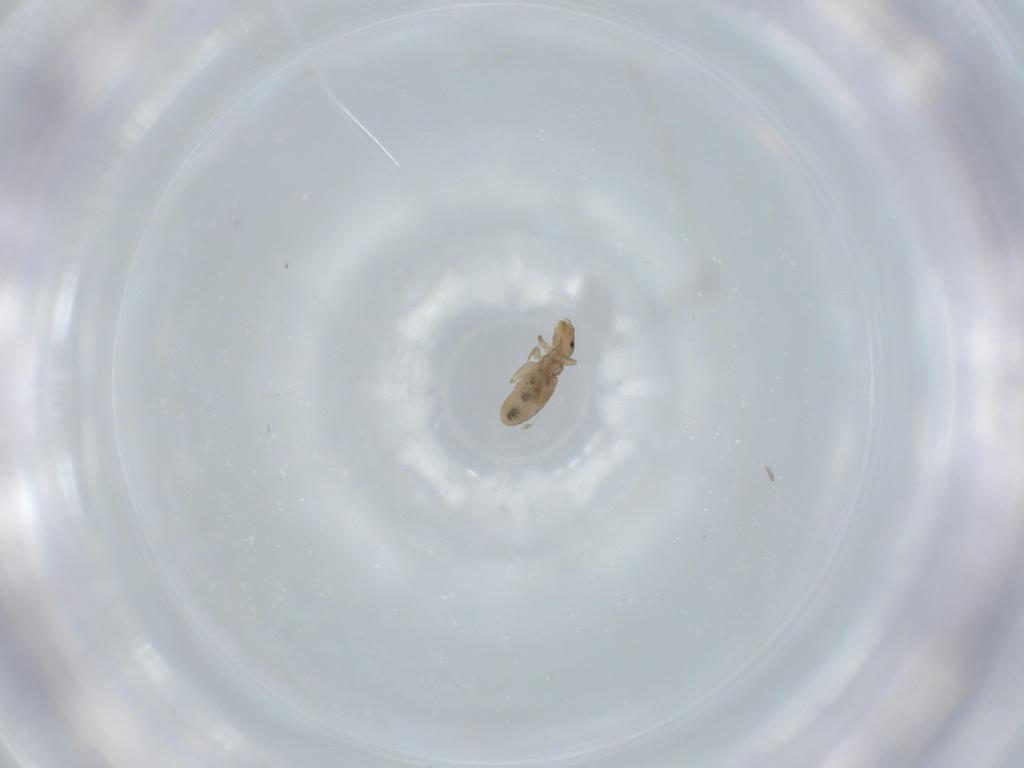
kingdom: Animalia
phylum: Arthropoda
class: Insecta
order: Psocodea
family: Liposcelididae
